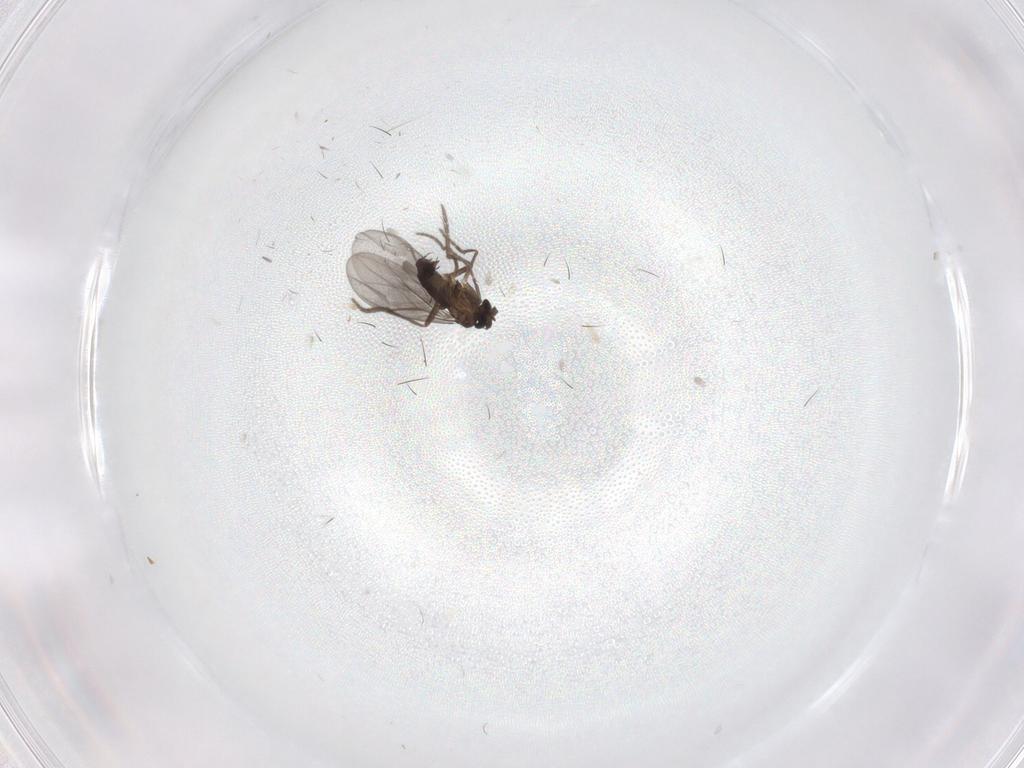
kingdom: Animalia
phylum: Arthropoda
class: Insecta
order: Diptera
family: Phoridae
